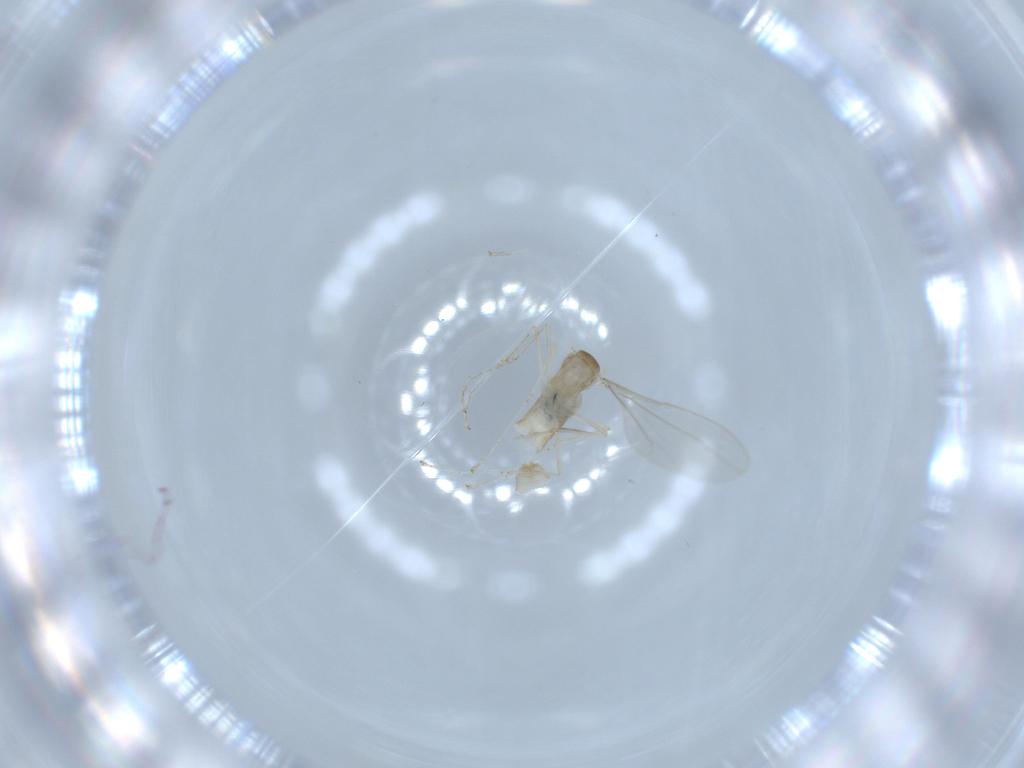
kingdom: Animalia
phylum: Arthropoda
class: Insecta
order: Diptera
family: Cecidomyiidae
